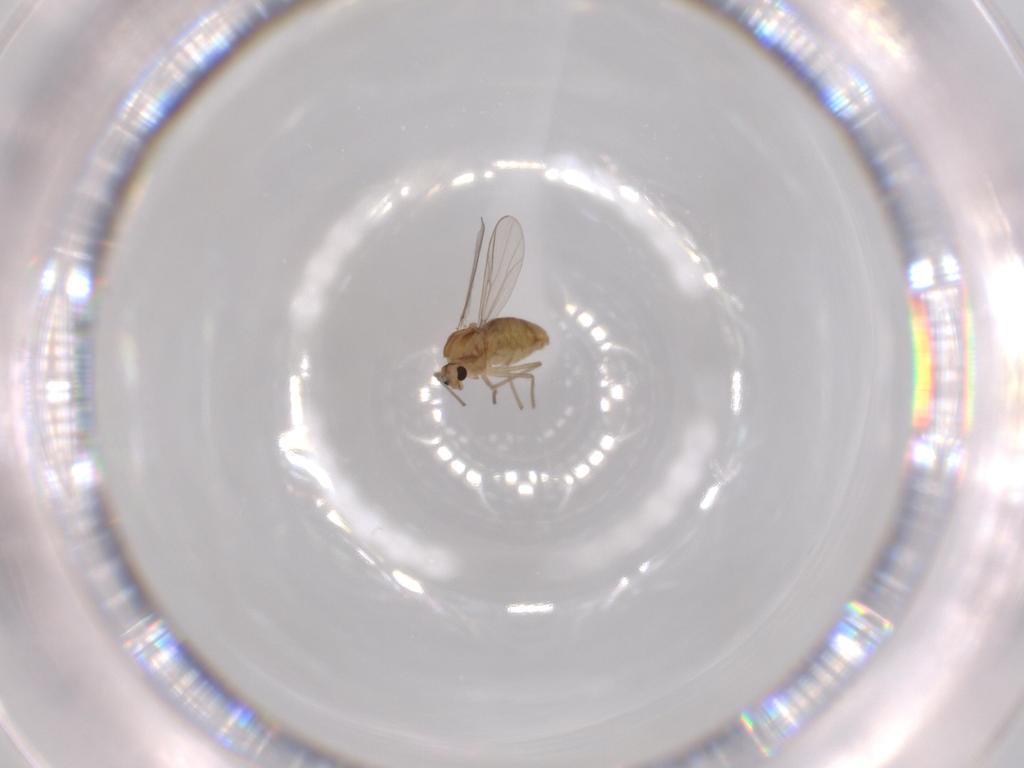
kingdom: Animalia
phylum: Arthropoda
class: Insecta
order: Diptera
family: Chironomidae
